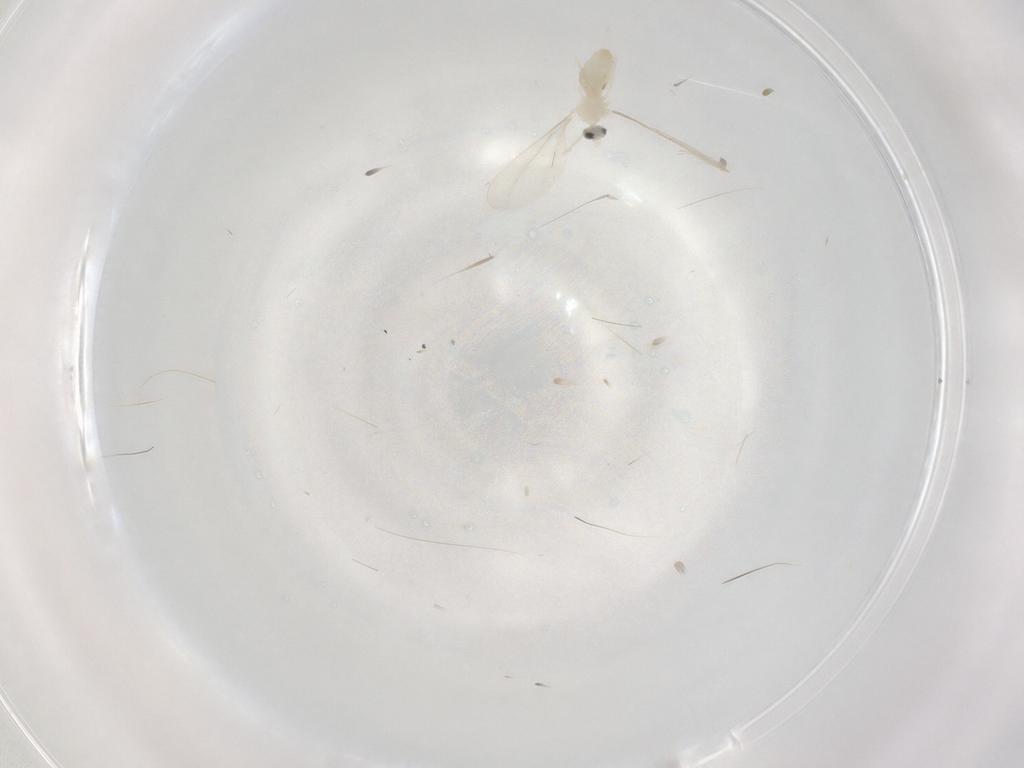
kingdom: Animalia
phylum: Arthropoda
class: Insecta
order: Diptera
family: Cecidomyiidae
